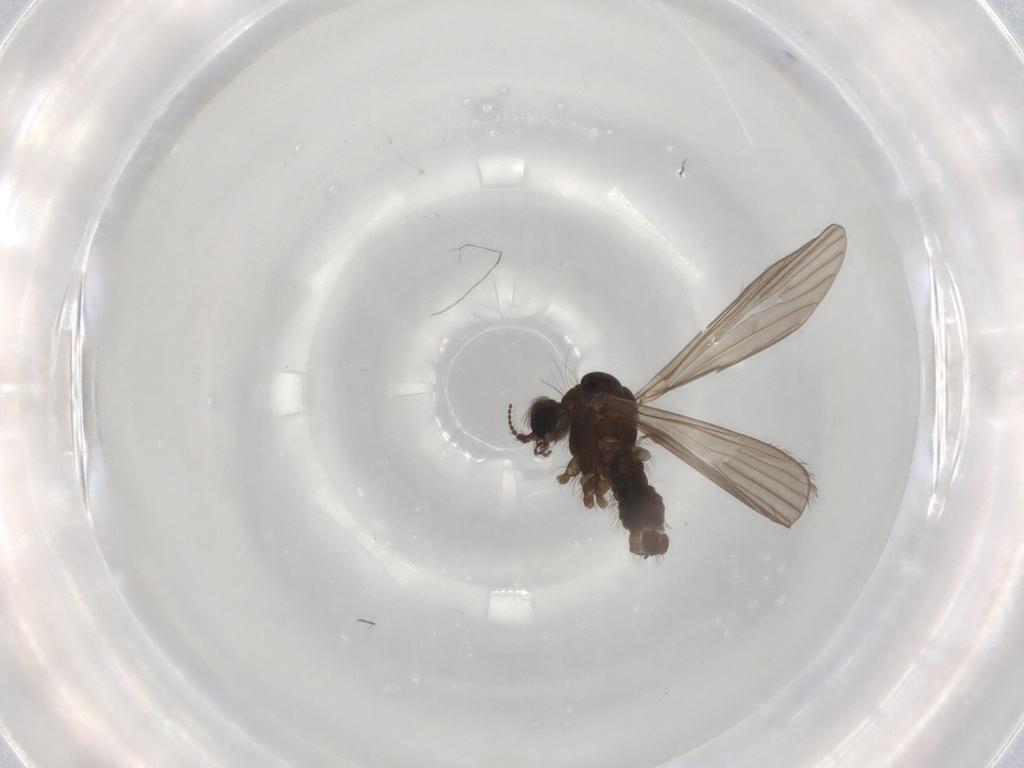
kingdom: Animalia
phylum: Arthropoda
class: Insecta
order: Diptera
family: Limoniidae
